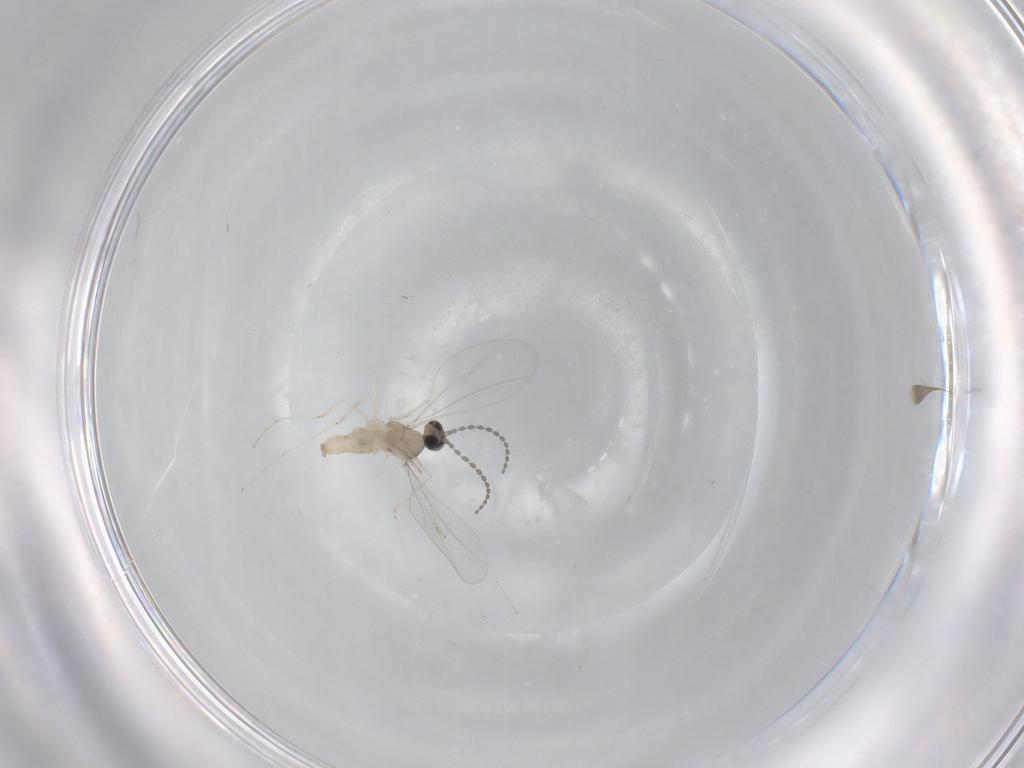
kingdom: Animalia
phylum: Arthropoda
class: Insecta
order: Diptera
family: Cecidomyiidae
